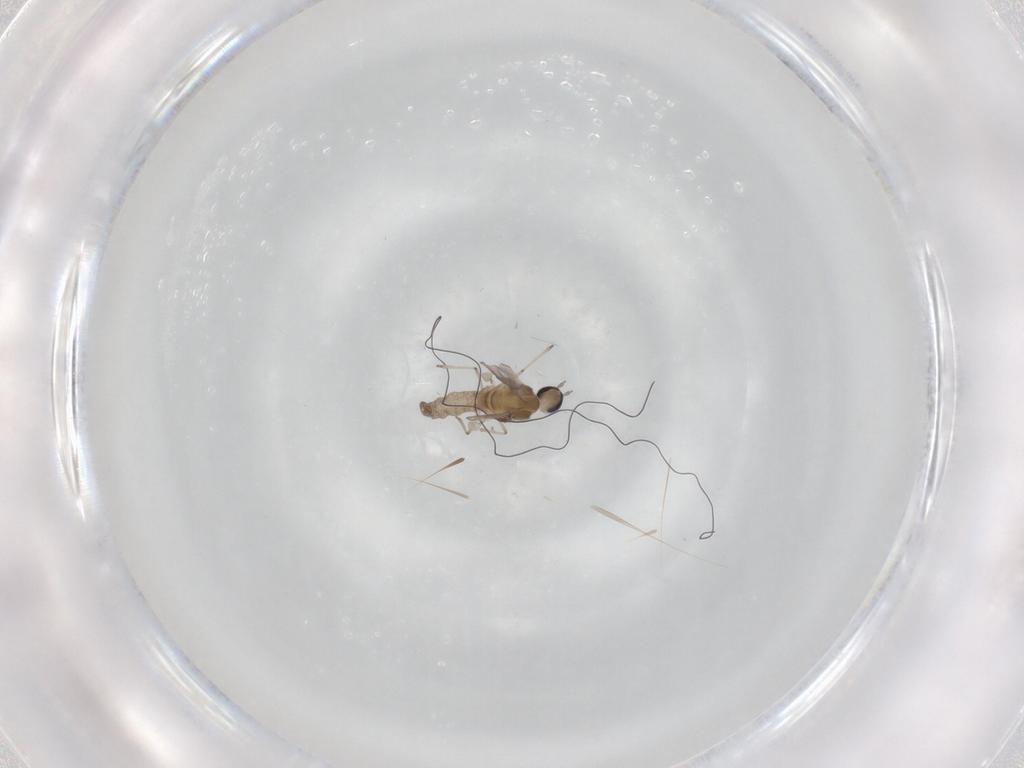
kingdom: Animalia
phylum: Arthropoda
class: Insecta
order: Diptera
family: Cecidomyiidae
